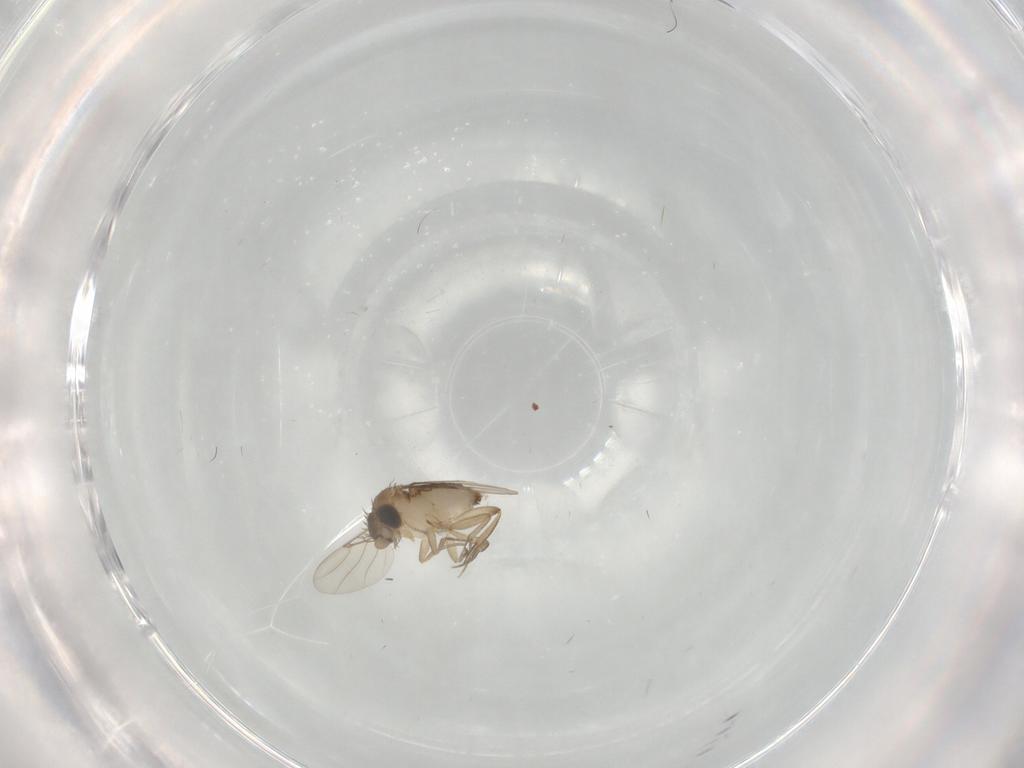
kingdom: Animalia
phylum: Arthropoda
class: Insecta
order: Diptera
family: Phoridae
